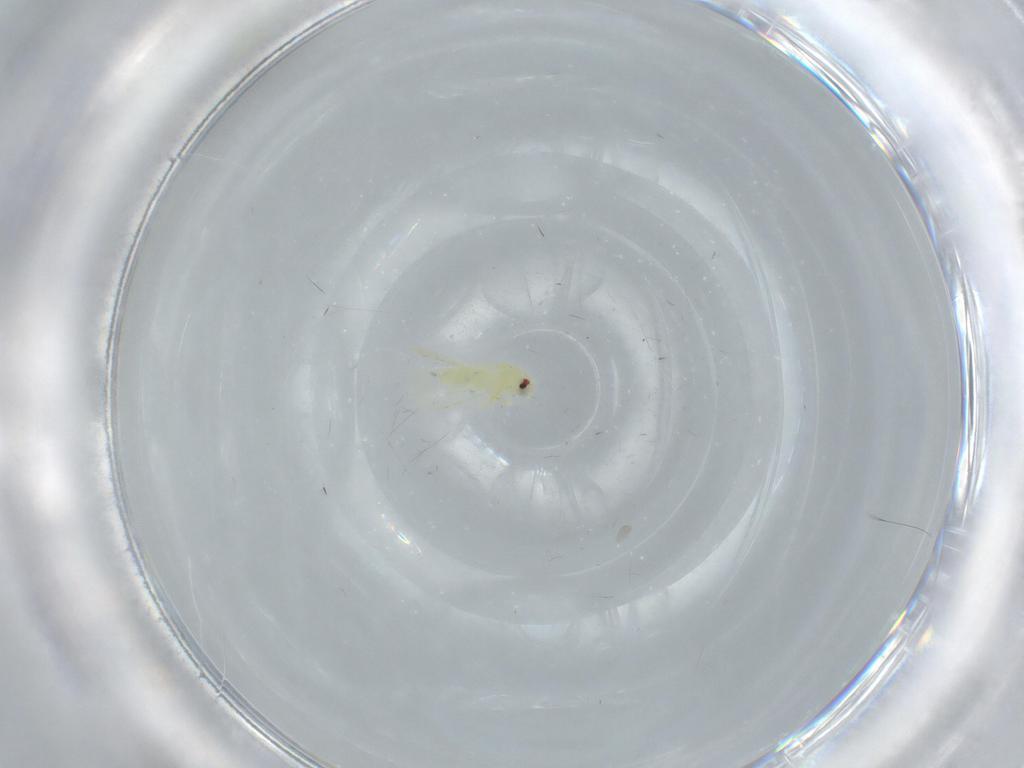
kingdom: Animalia
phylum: Arthropoda
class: Insecta
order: Hemiptera
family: Aleyrodidae
